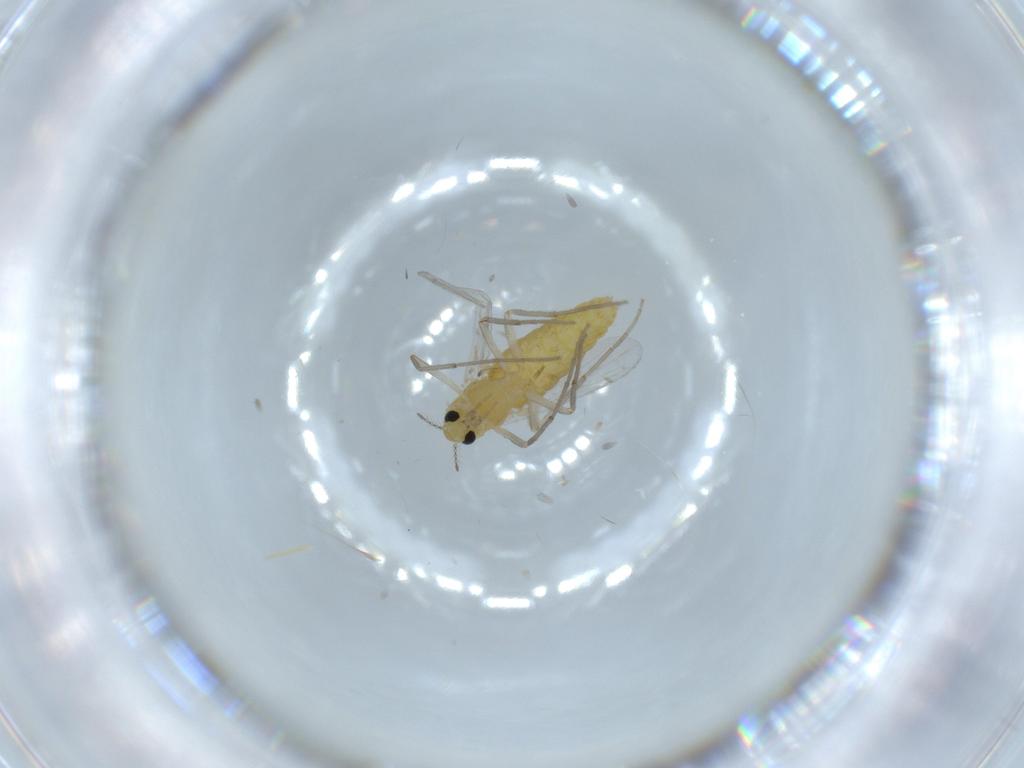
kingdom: Animalia
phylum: Arthropoda
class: Insecta
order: Diptera
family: Chironomidae
